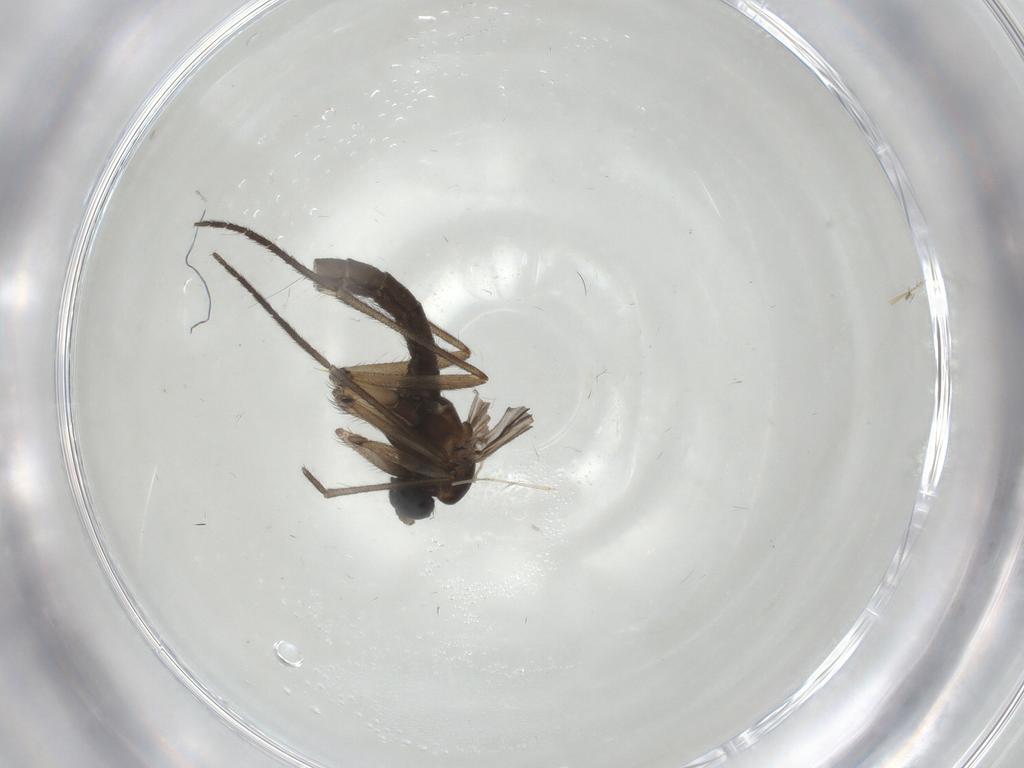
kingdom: Animalia
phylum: Arthropoda
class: Insecta
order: Diptera
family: Sciaridae
